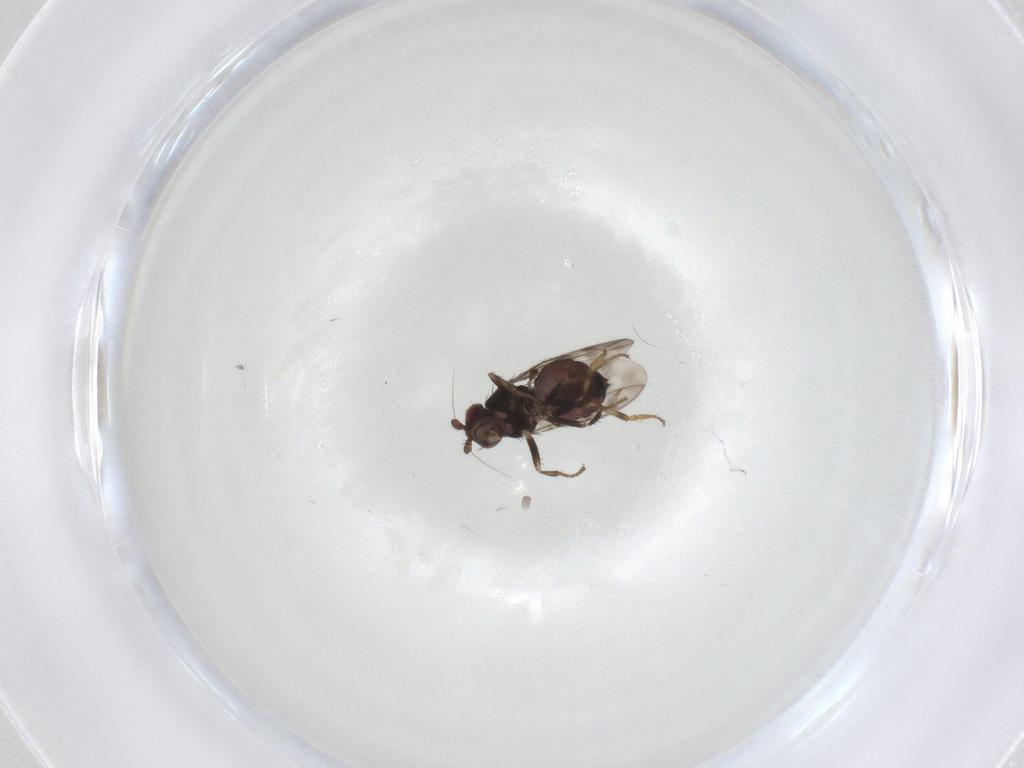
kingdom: Animalia
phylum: Arthropoda
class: Insecta
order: Diptera
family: Sphaeroceridae
